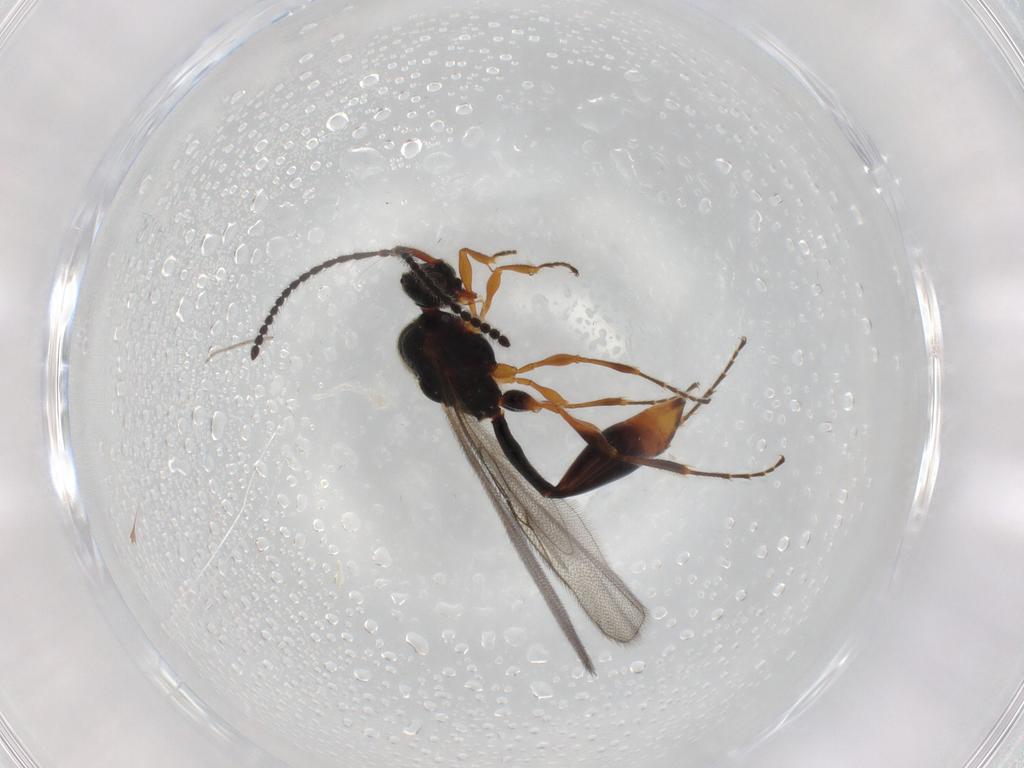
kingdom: Animalia
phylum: Arthropoda
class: Insecta
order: Hymenoptera
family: Diapriidae
